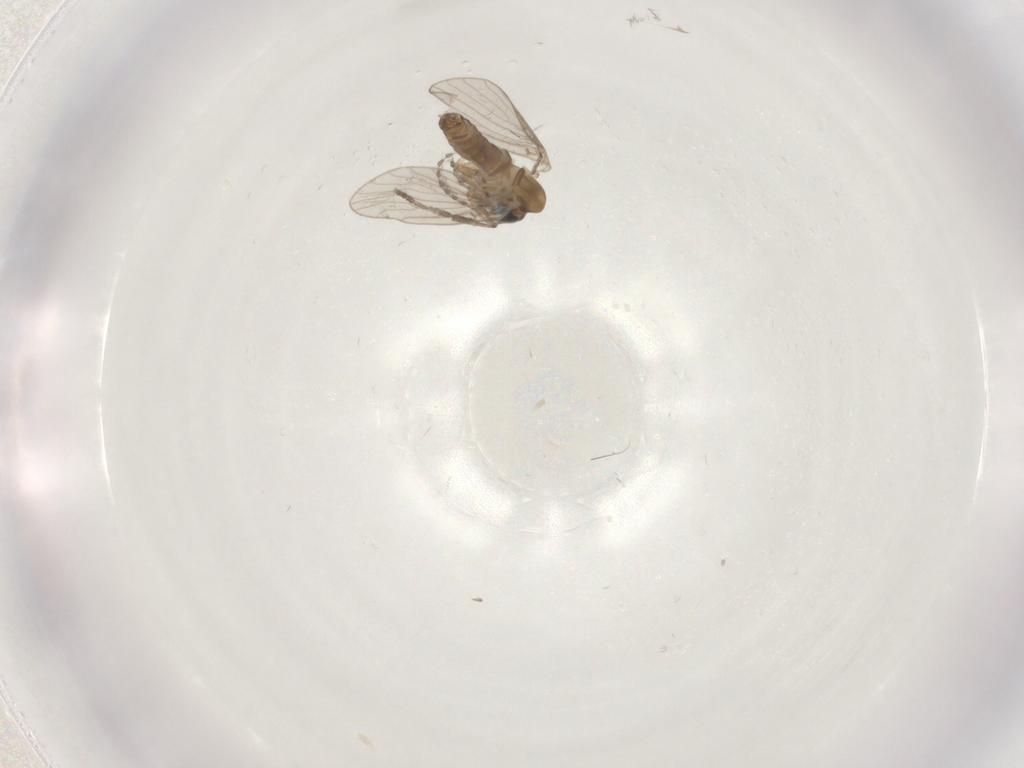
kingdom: Animalia
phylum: Arthropoda
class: Insecta
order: Diptera
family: Psychodidae
